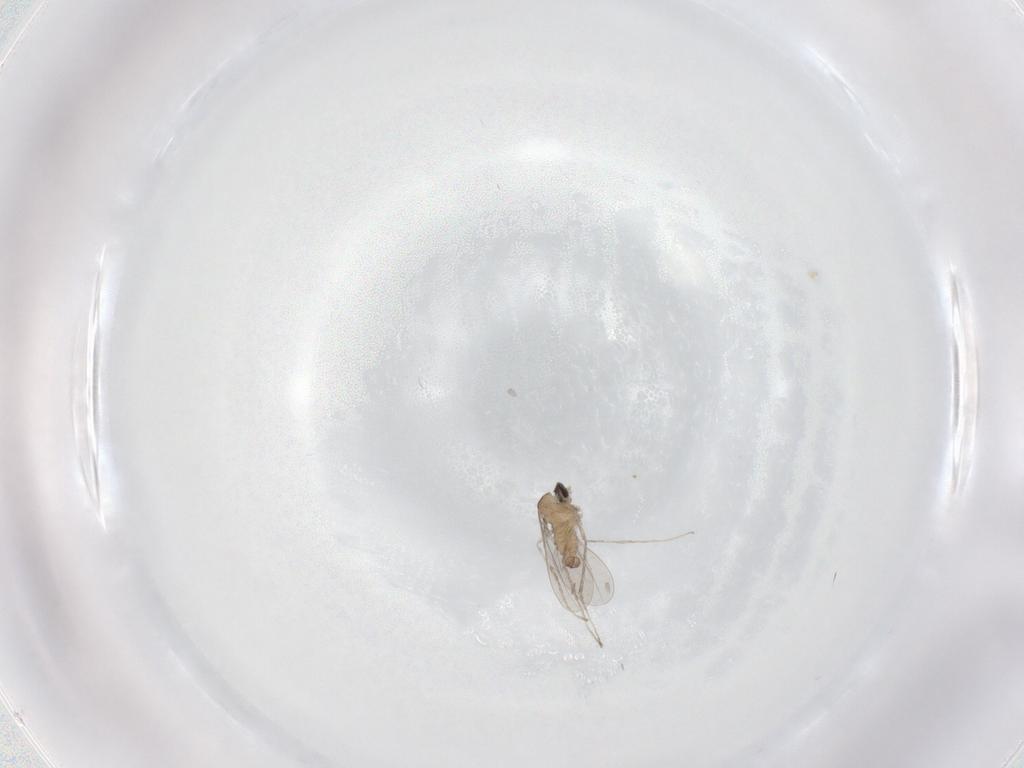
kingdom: Animalia
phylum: Arthropoda
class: Insecta
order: Diptera
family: Cecidomyiidae
